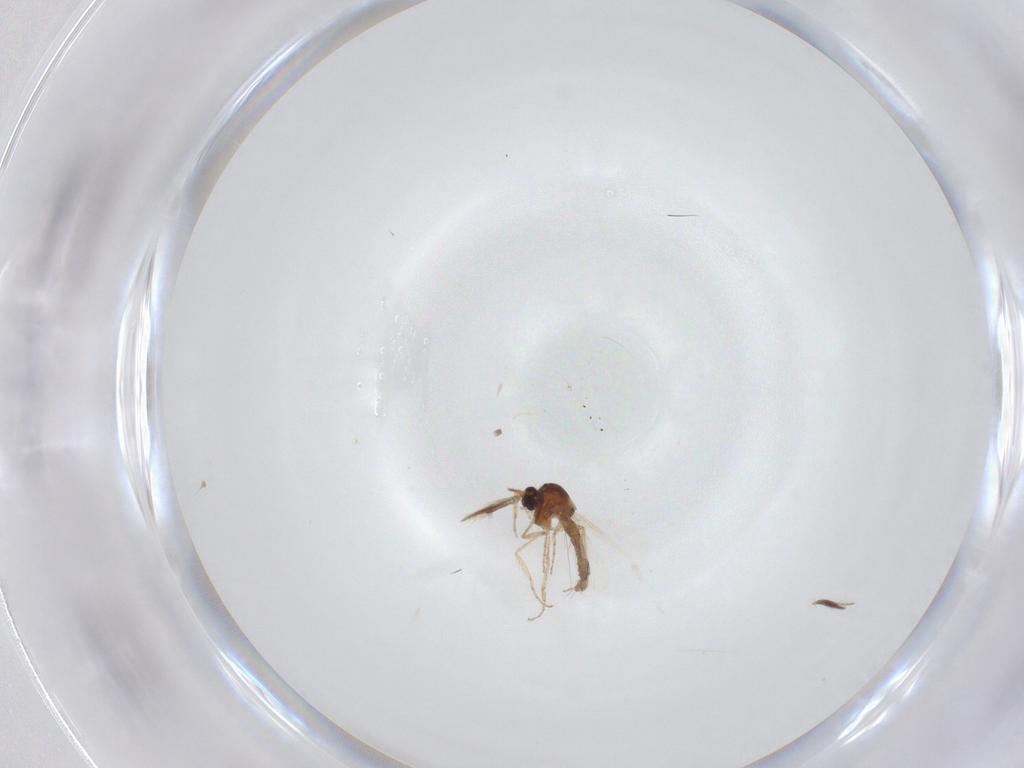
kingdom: Animalia
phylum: Arthropoda
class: Insecta
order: Diptera
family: Ceratopogonidae
